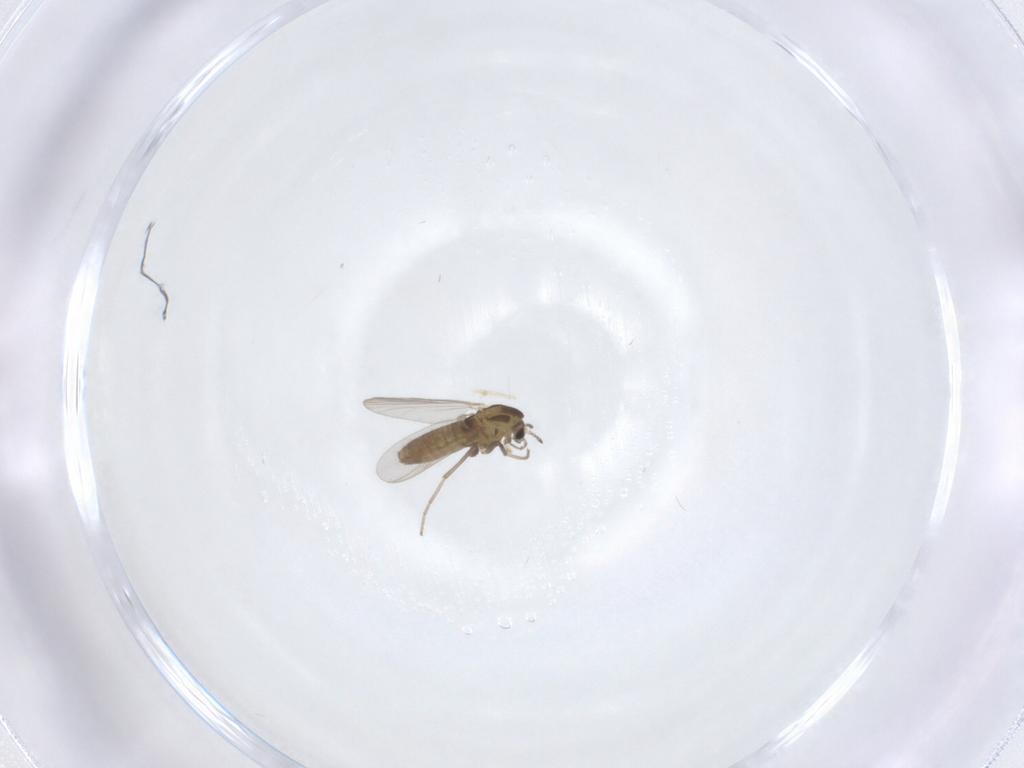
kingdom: Animalia
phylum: Arthropoda
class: Insecta
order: Diptera
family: Chironomidae
